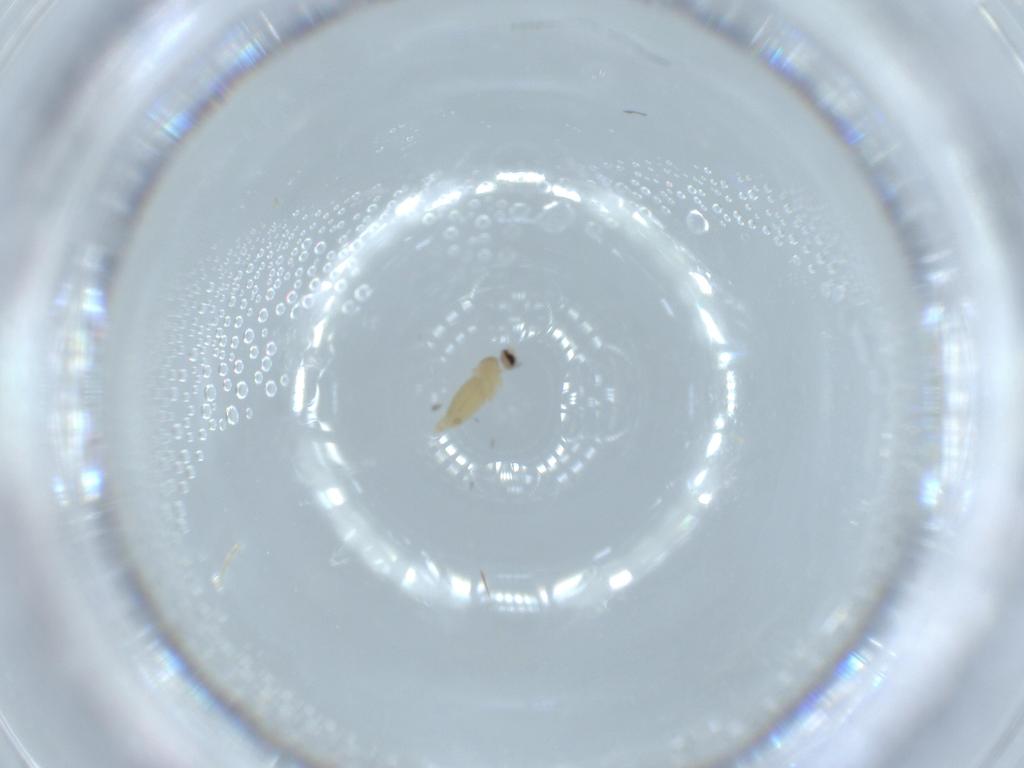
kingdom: Animalia
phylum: Arthropoda
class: Insecta
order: Diptera
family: Cecidomyiidae
